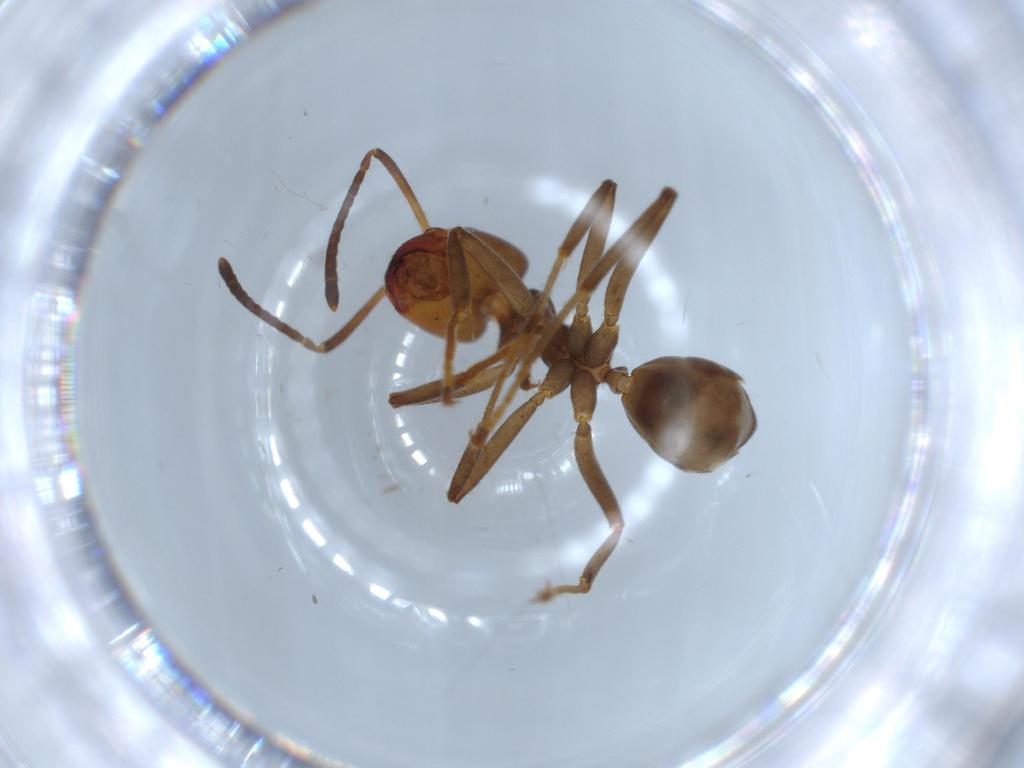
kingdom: Animalia
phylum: Arthropoda
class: Insecta
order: Hymenoptera
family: Formicidae
